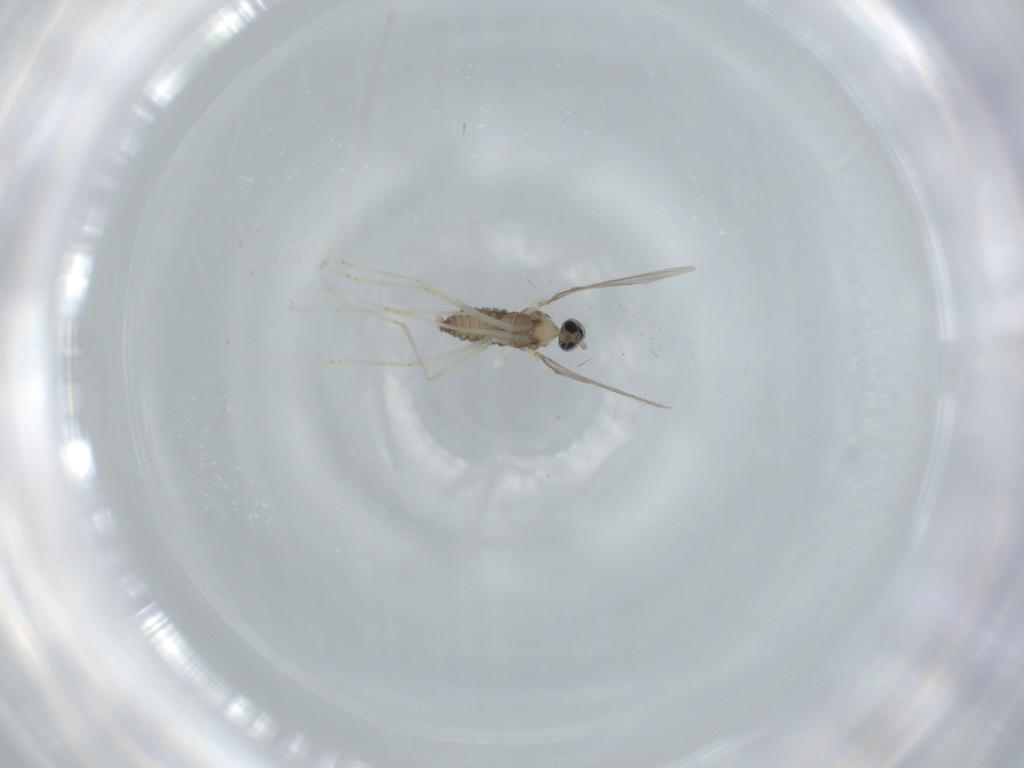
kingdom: Animalia
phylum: Arthropoda
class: Insecta
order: Diptera
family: Cecidomyiidae
